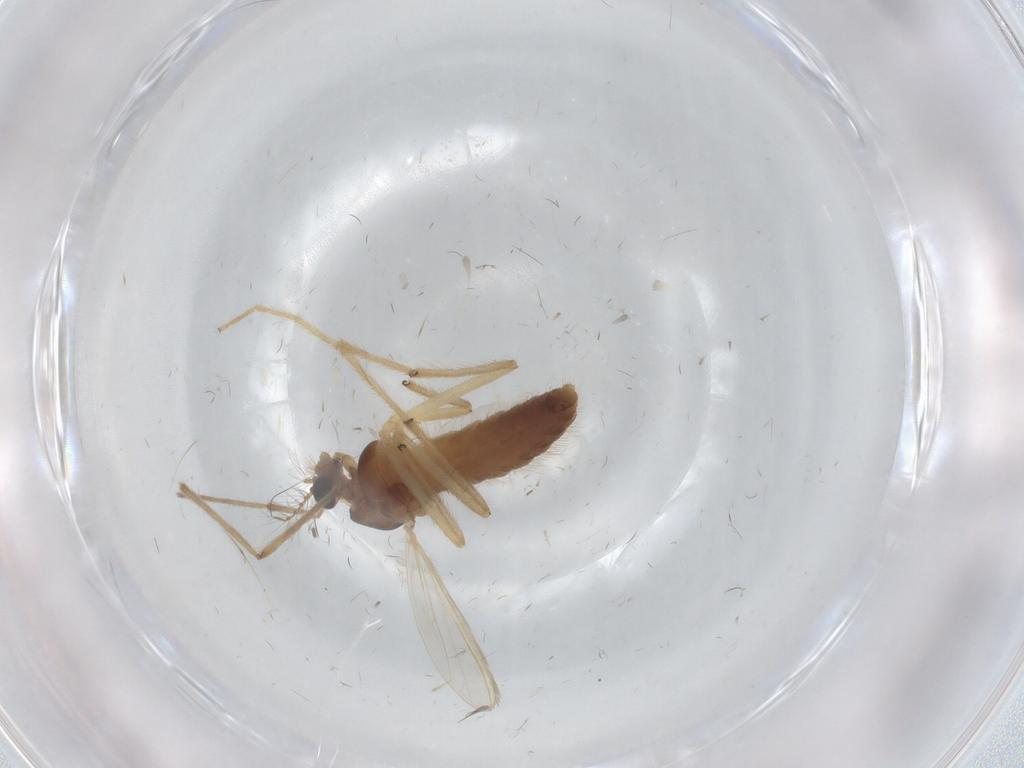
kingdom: Animalia
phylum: Arthropoda
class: Insecta
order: Diptera
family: Chironomidae
